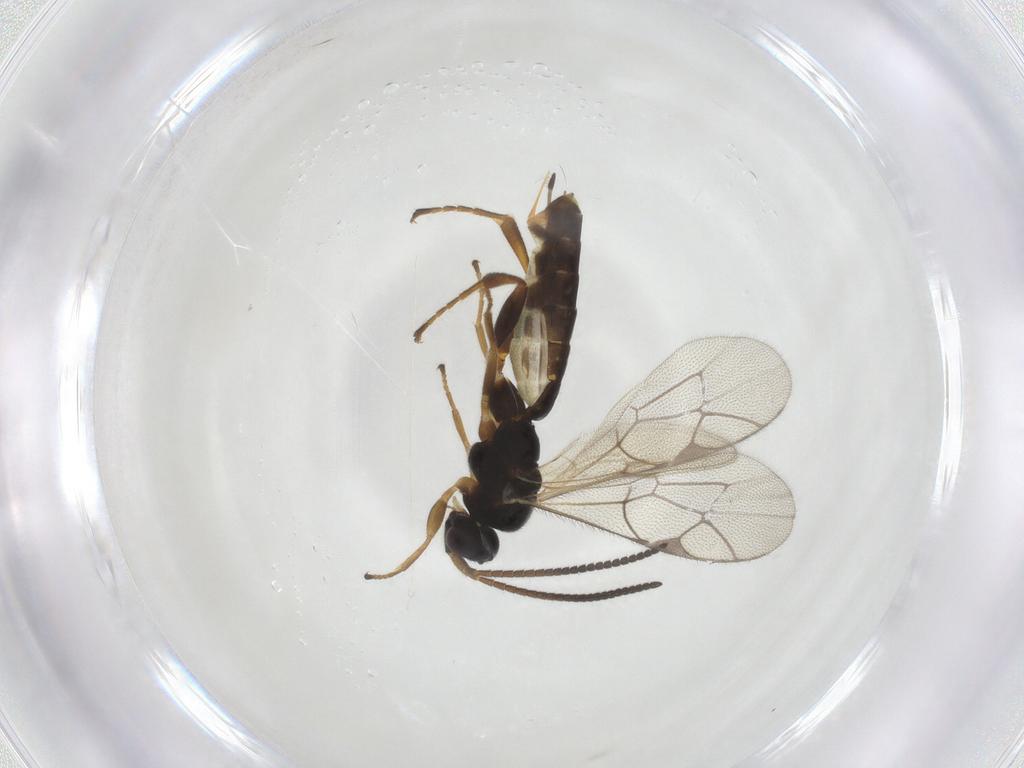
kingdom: Animalia
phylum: Arthropoda
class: Insecta
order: Hymenoptera
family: Ichneumonidae
